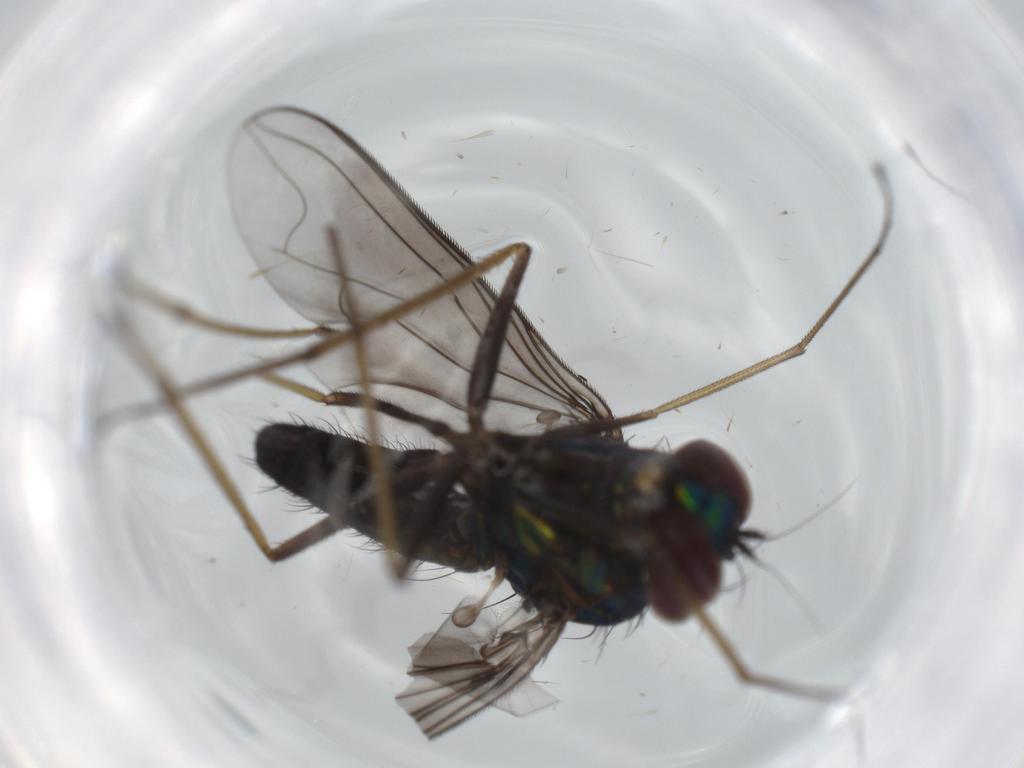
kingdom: Animalia
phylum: Arthropoda
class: Insecta
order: Diptera
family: Dolichopodidae
